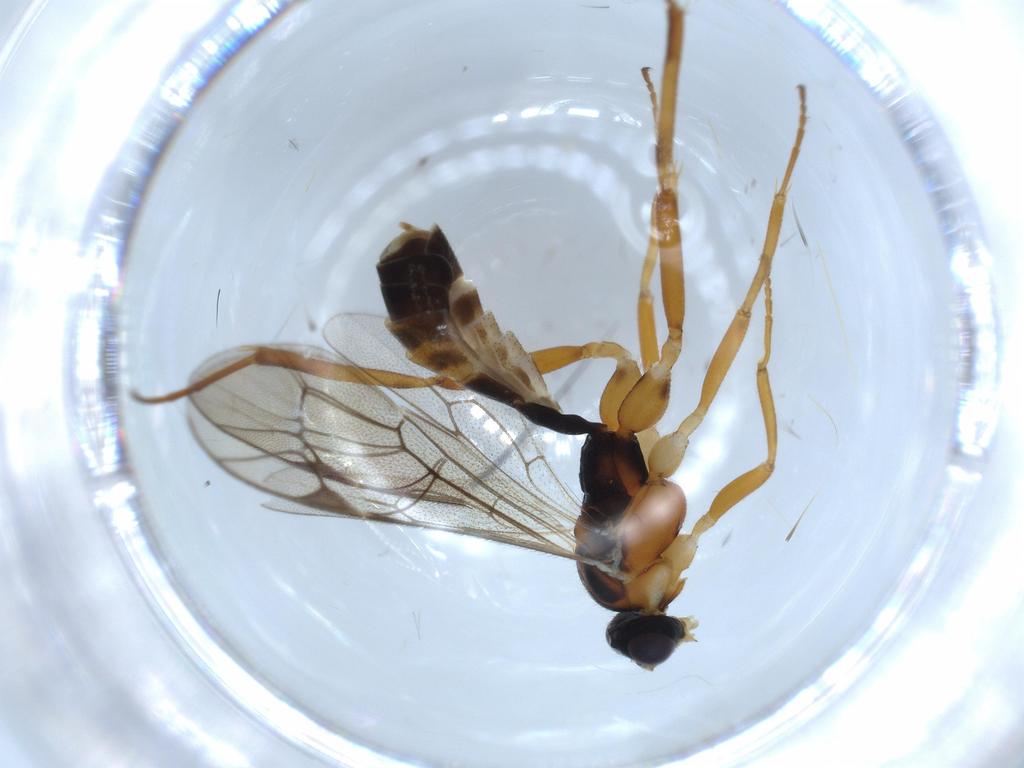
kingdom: Animalia
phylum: Arthropoda
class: Insecta
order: Hymenoptera
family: Ichneumonidae
